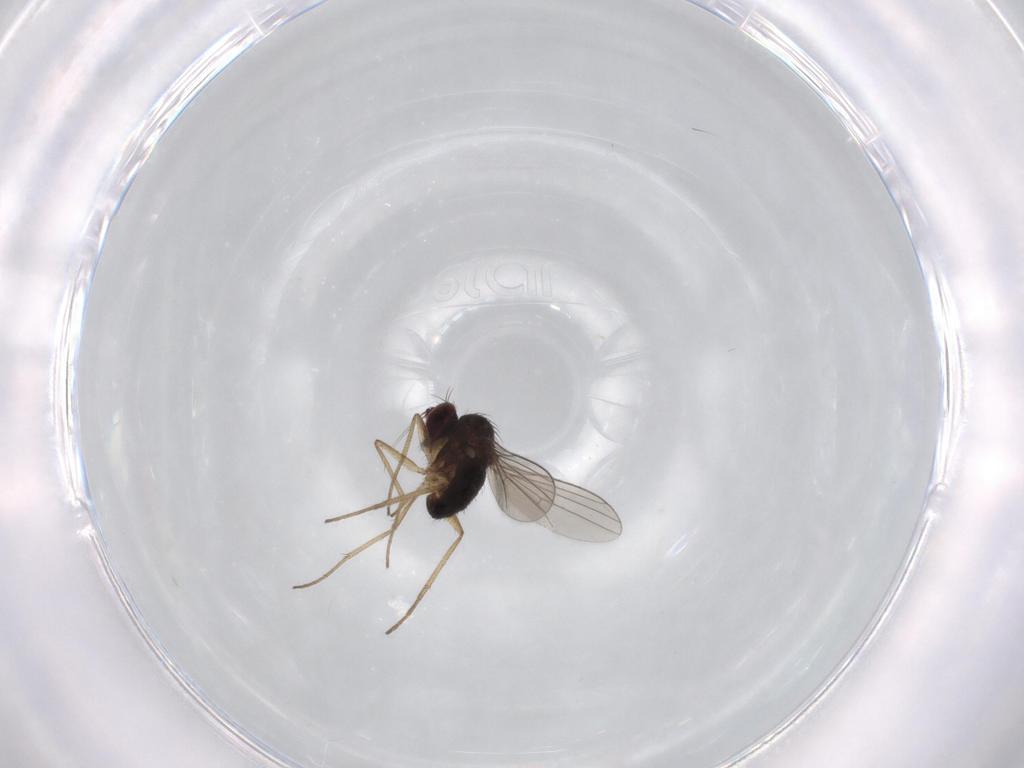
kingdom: Animalia
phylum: Arthropoda
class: Insecta
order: Diptera
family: Dolichopodidae
